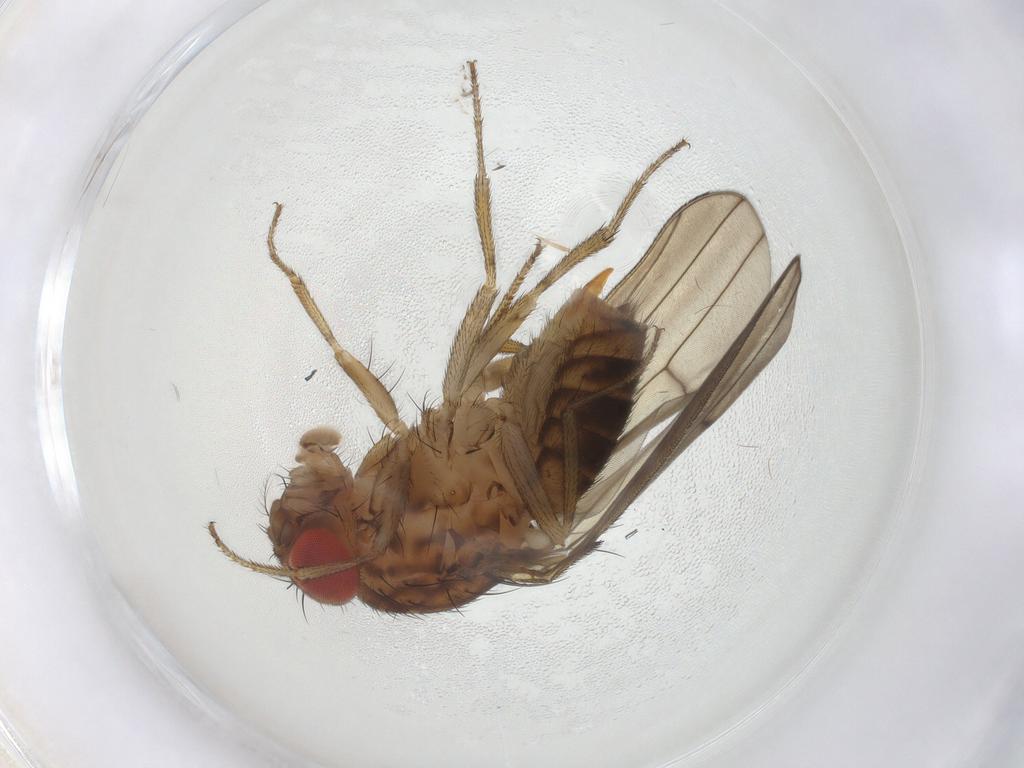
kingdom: Animalia
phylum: Arthropoda
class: Insecta
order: Diptera
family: Drosophilidae
